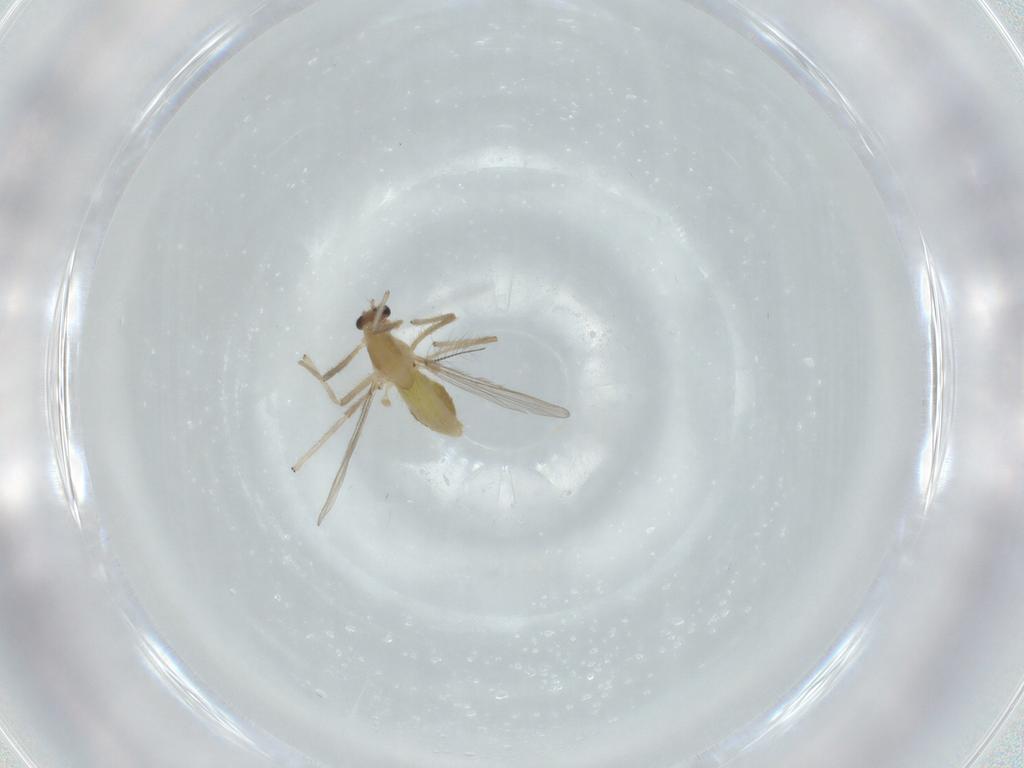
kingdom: Animalia
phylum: Arthropoda
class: Insecta
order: Diptera
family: Chironomidae
